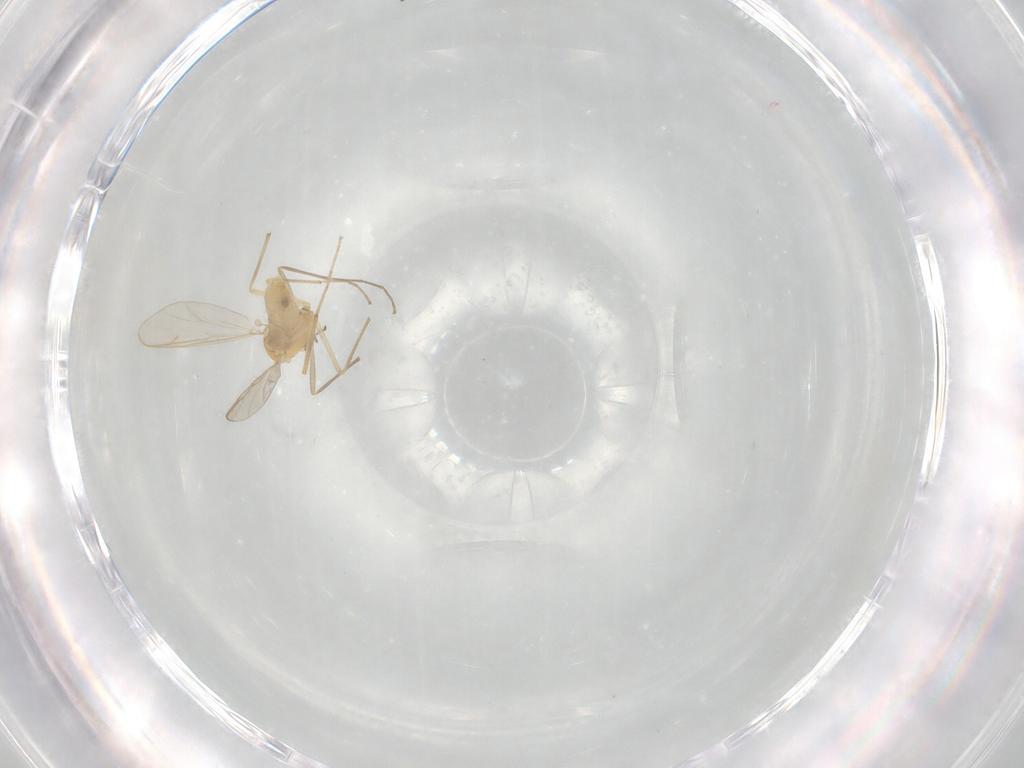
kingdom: Animalia
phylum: Arthropoda
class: Insecta
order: Diptera
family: Chironomidae
